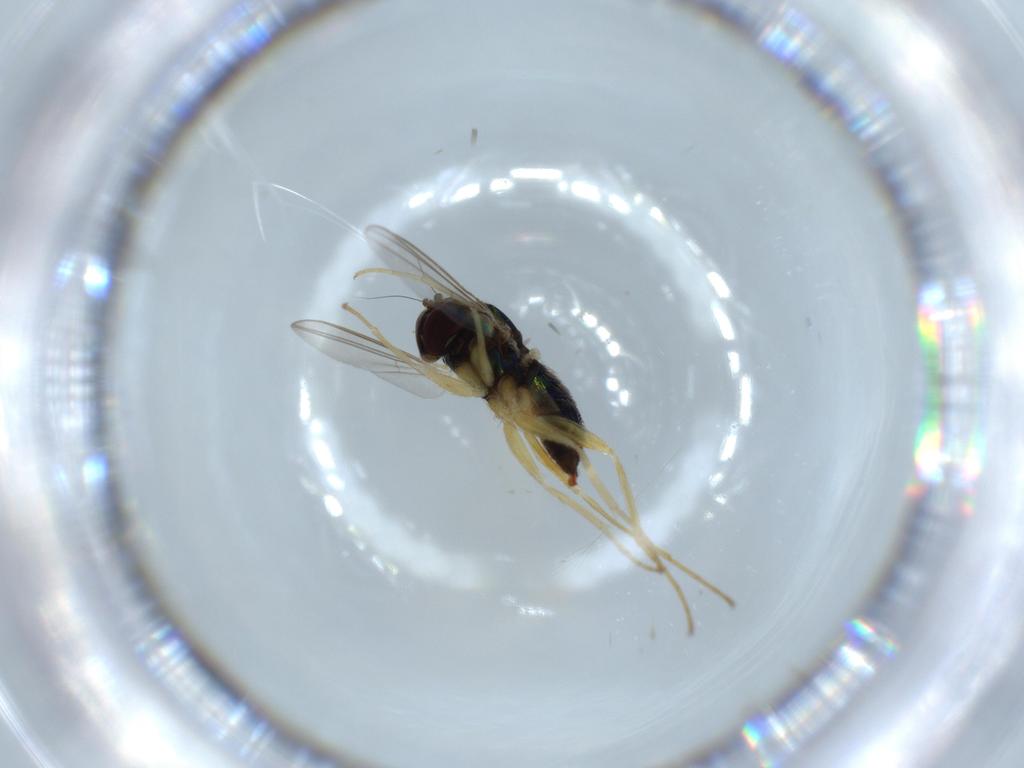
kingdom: Animalia
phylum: Arthropoda
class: Insecta
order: Diptera
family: Dolichopodidae
